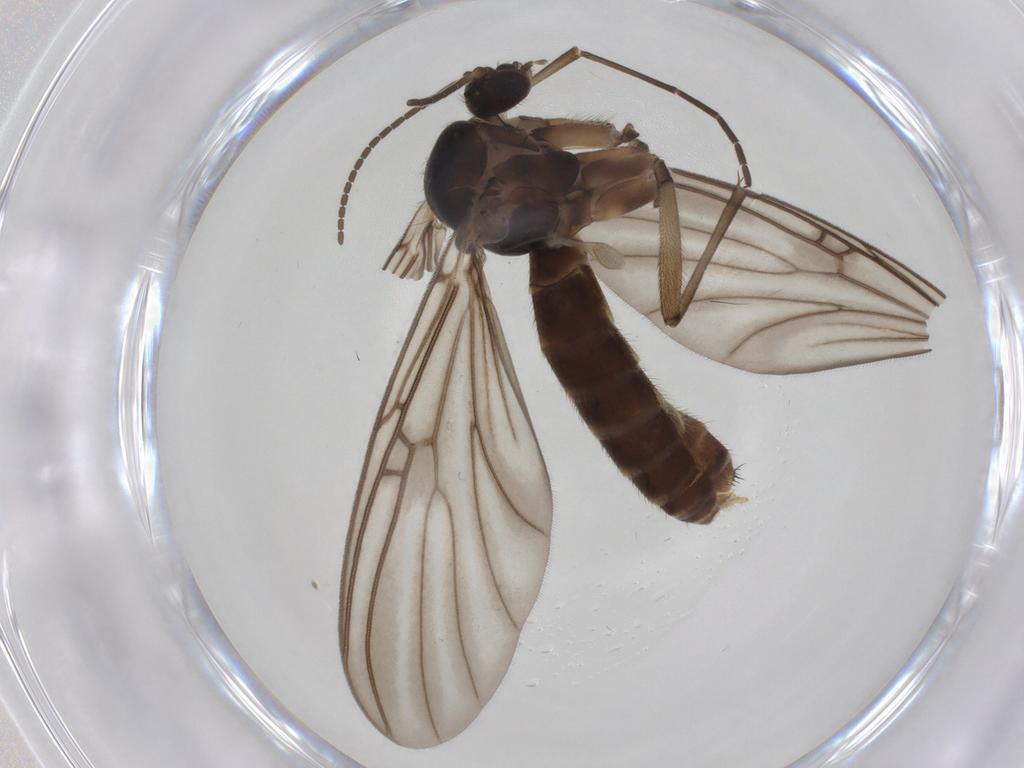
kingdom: Animalia
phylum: Arthropoda
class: Insecta
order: Diptera
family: Mycetophilidae
